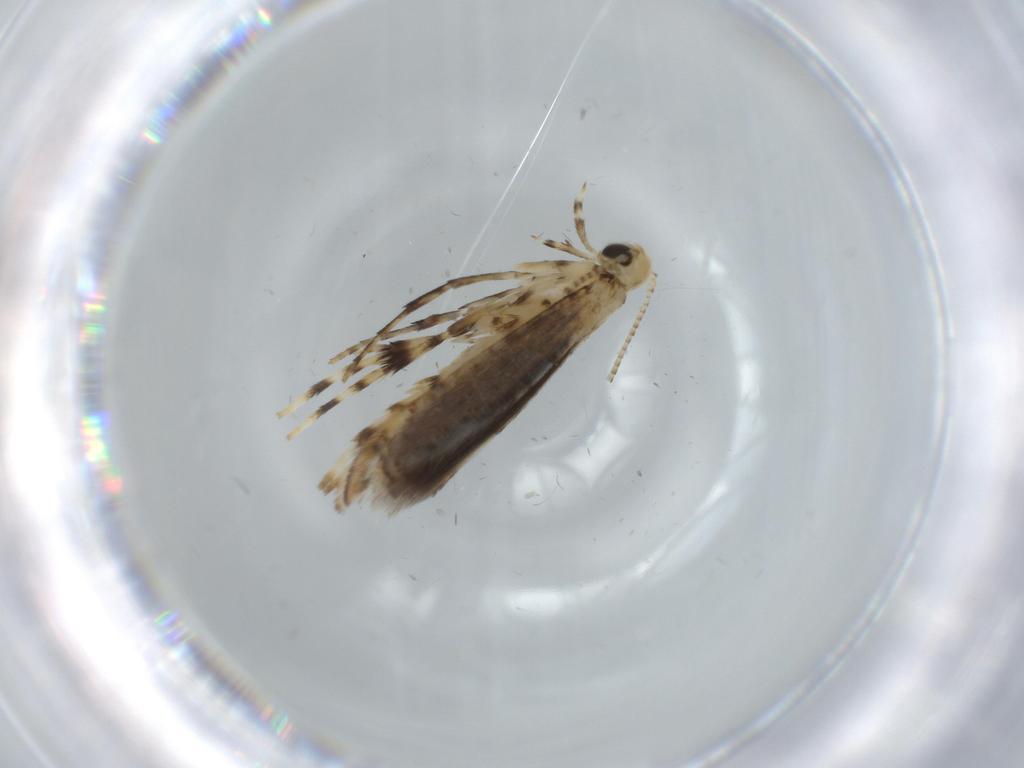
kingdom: Animalia
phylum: Arthropoda
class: Insecta
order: Lepidoptera
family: Gracillariidae
